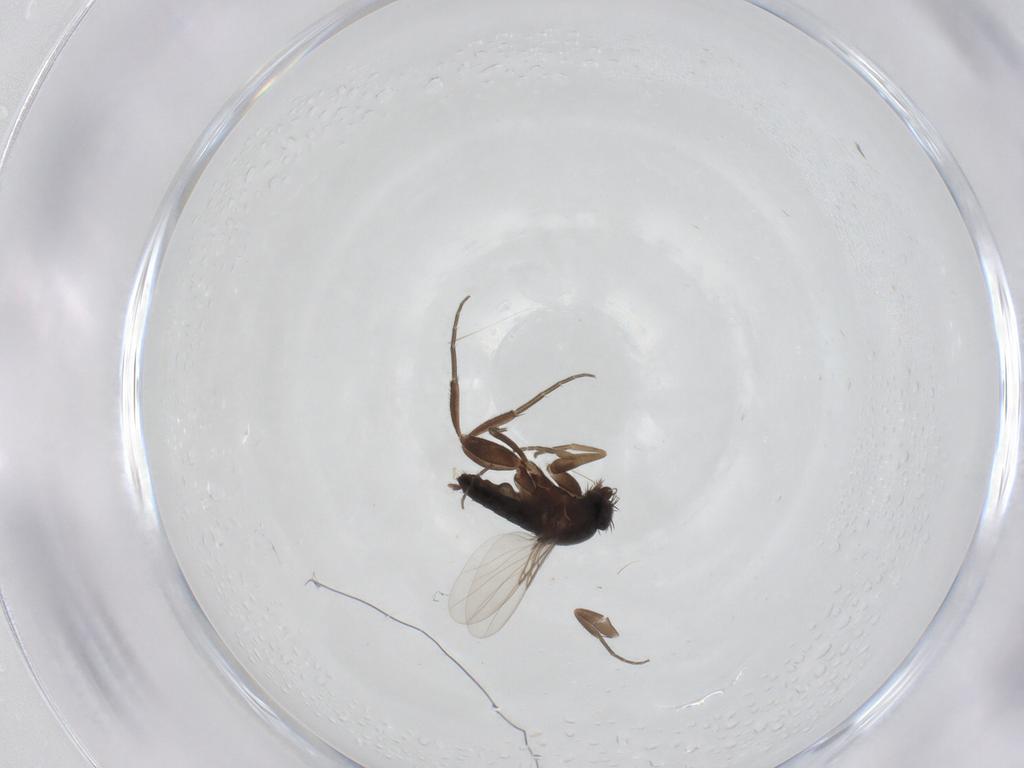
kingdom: Animalia
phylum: Arthropoda
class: Insecta
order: Diptera
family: Phoridae
